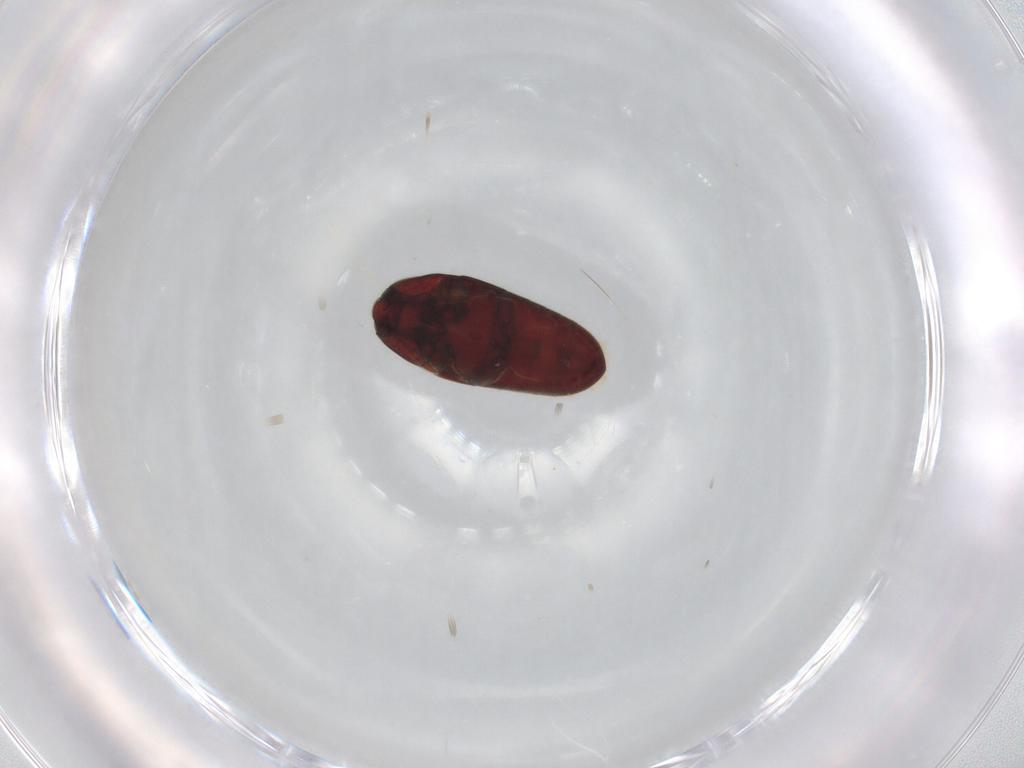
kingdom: Animalia
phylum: Arthropoda
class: Insecta
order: Coleoptera
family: Throscidae
